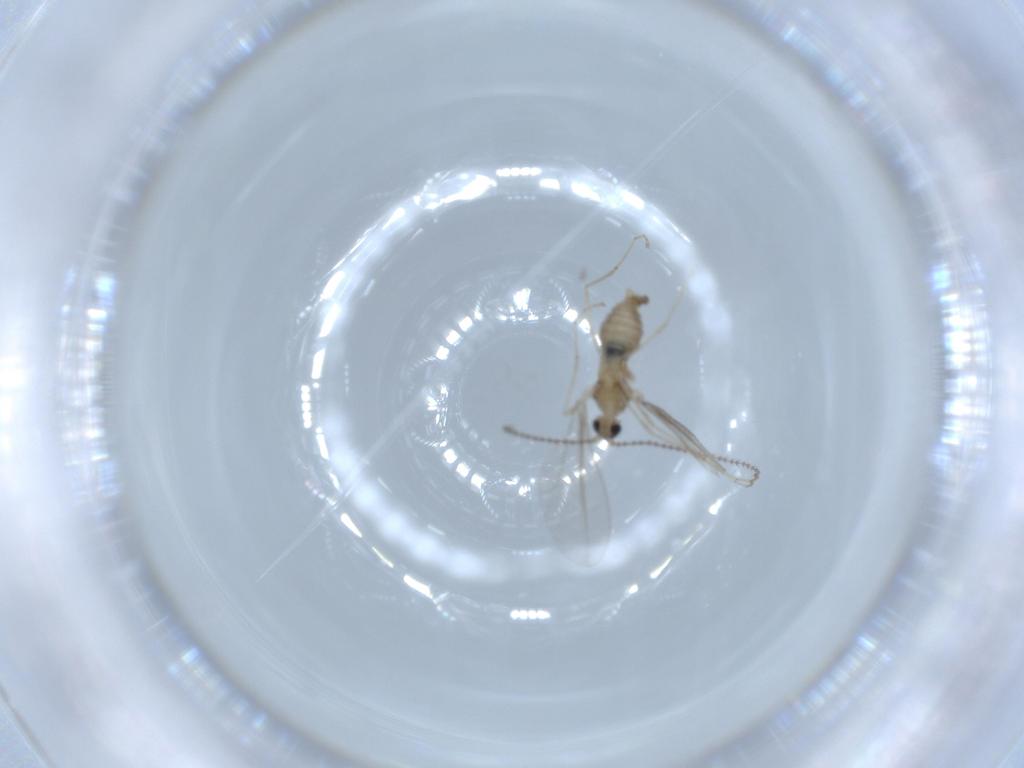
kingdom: Animalia
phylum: Arthropoda
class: Insecta
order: Diptera
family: Cecidomyiidae
